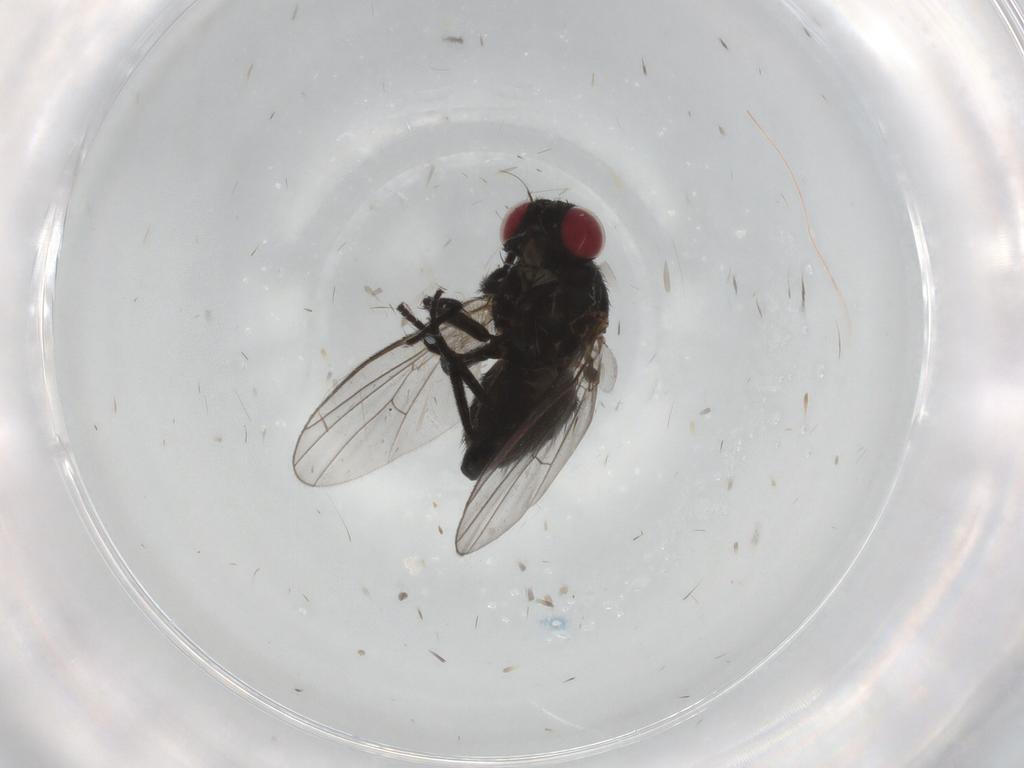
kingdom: Animalia
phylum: Arthropoda
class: Insecta
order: Diptera
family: Agromyzidae
